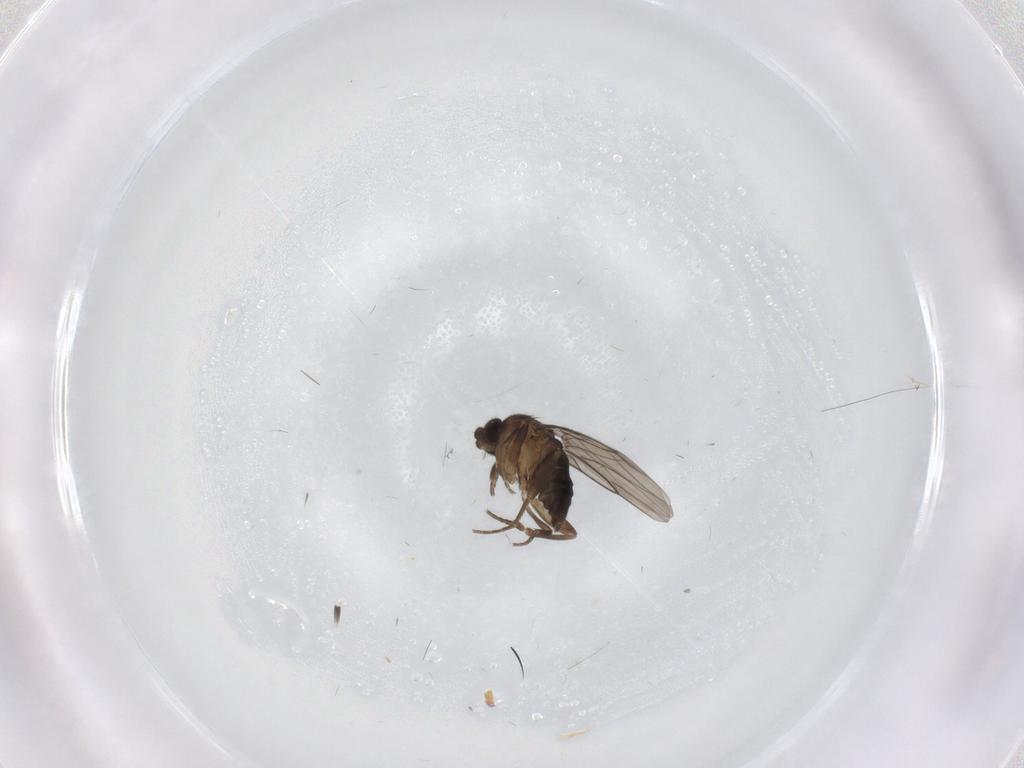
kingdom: Animalia
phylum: Arthropoda
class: Insecta
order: Diptera
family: Phoridae
